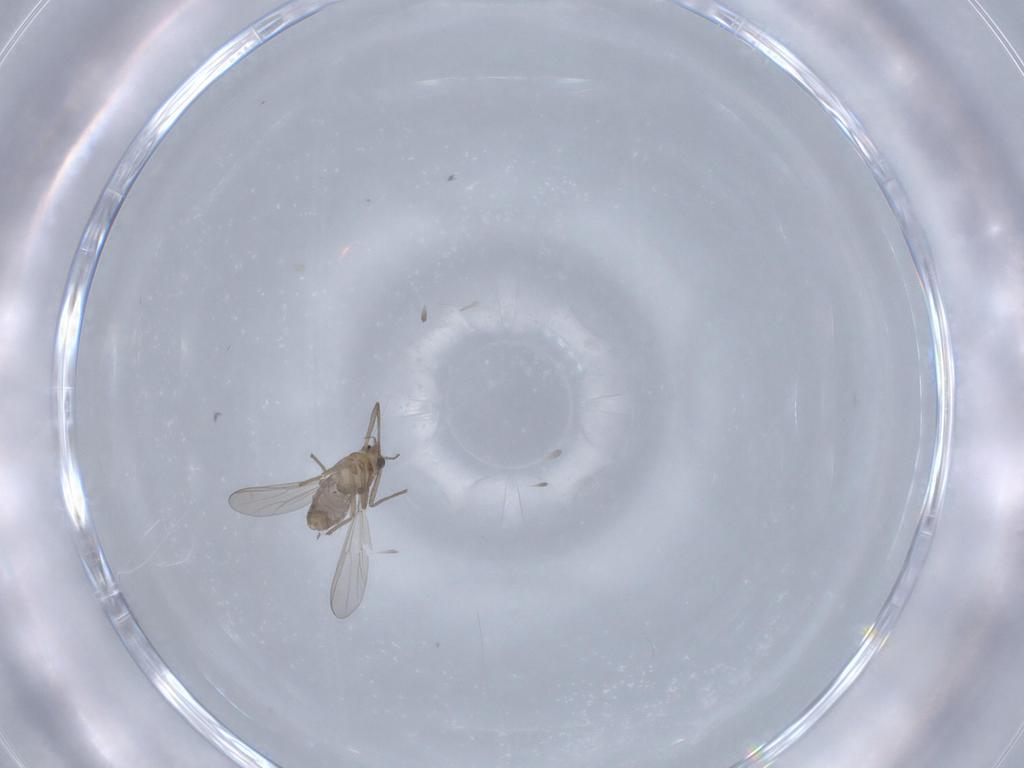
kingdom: Animalia
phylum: Arthropoda
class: Insecta
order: Diptera
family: Chironomidae
